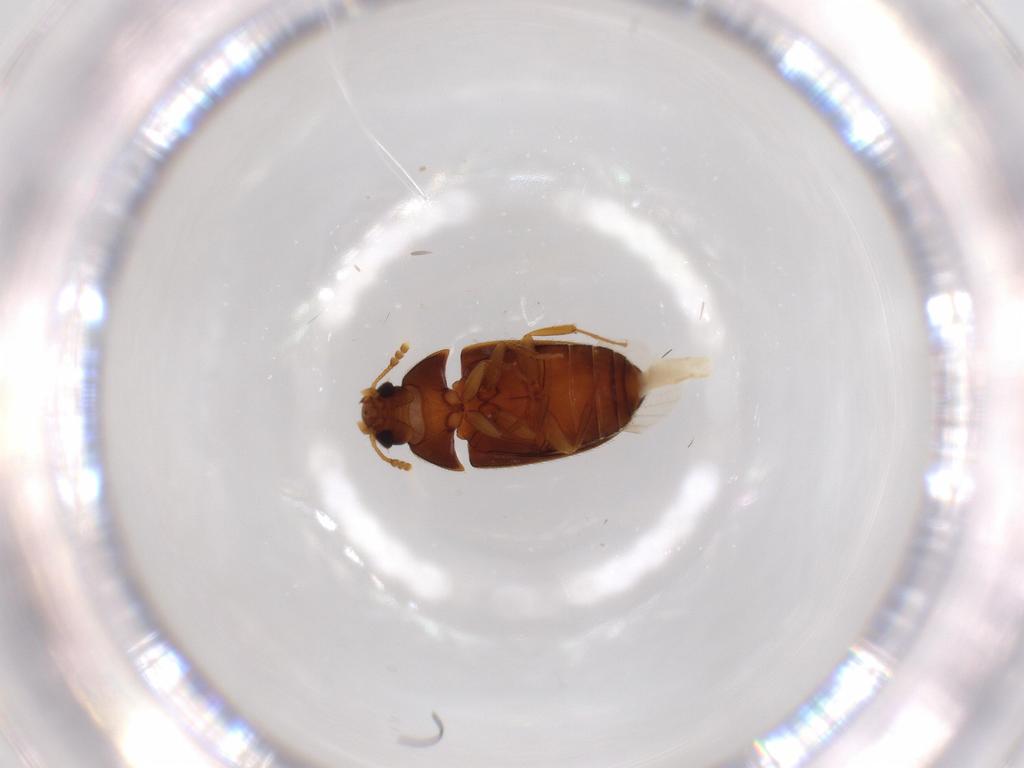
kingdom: Animalia
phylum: Arthropoda
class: Insecta
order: Coleoptera
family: Mycetophagidae
